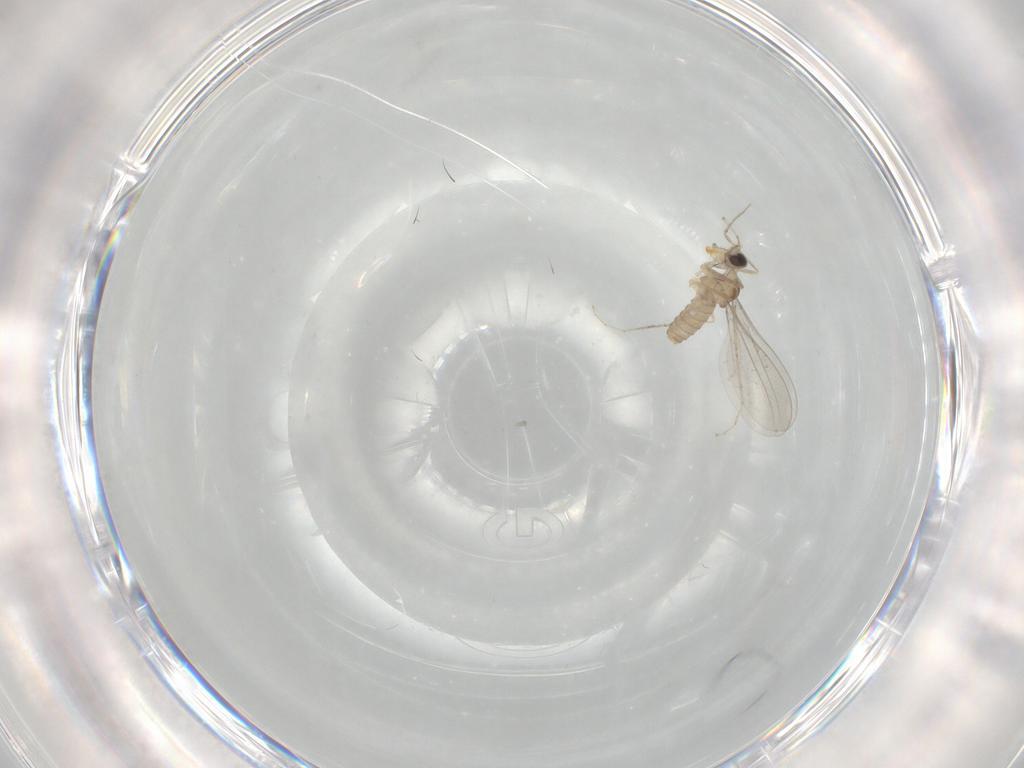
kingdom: Animalia
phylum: Arthropoda
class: Insecta
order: Diptera
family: Cecidomyiidae
